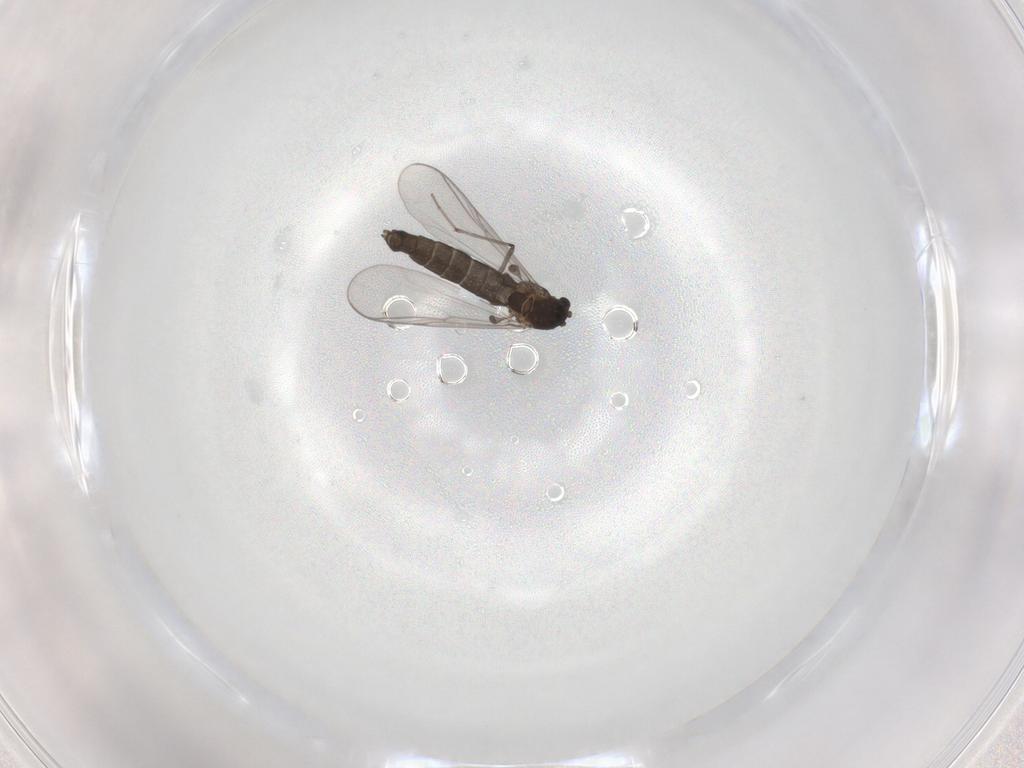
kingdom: Animalia
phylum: Arthropoda
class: Insecta
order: Diptera
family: Chironomidae
